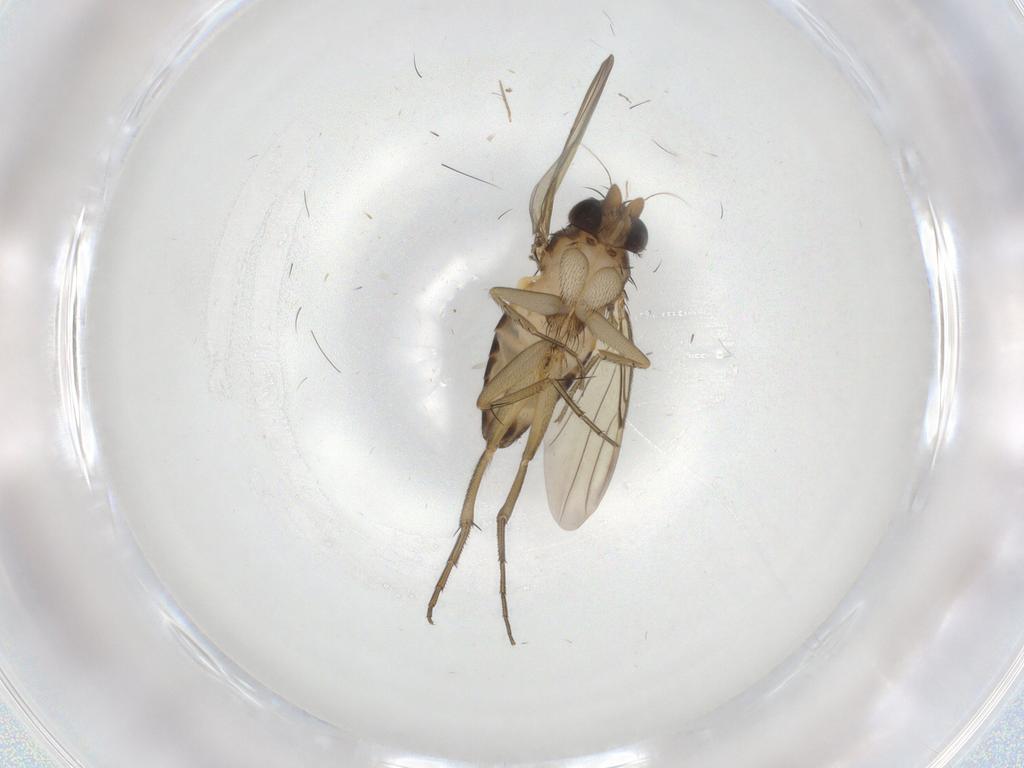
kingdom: Animalia
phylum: Arthropoda
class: Insecta
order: Diptera
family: Phoridae
